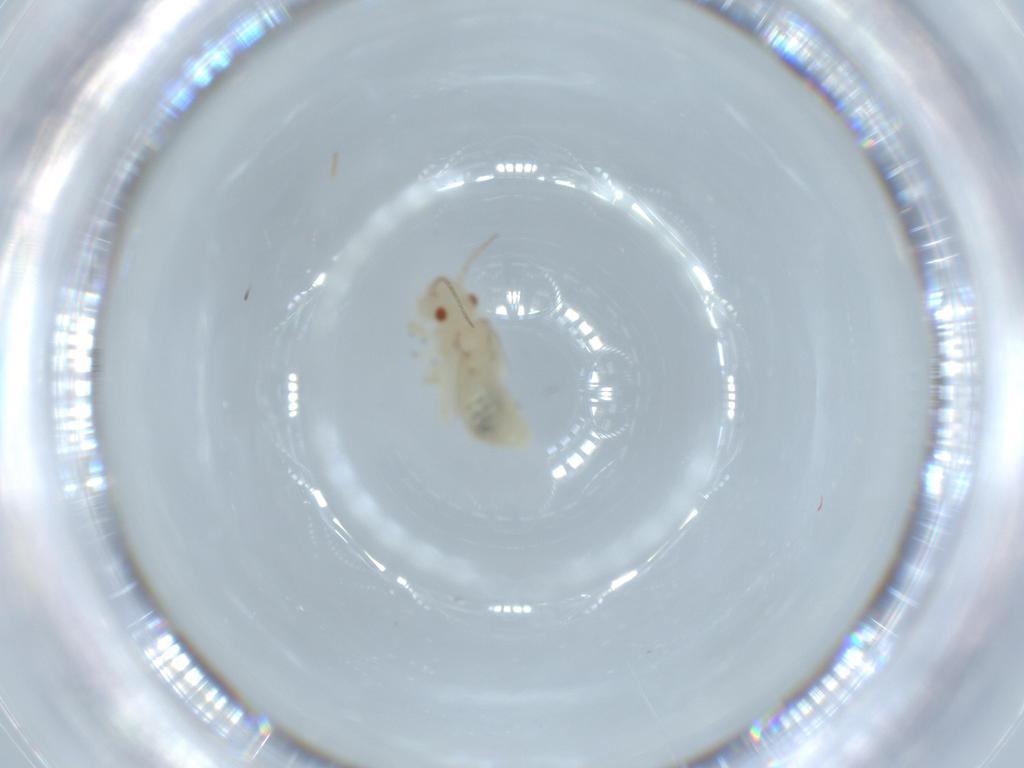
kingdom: Animalia
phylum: Arthropoda
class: Insecta
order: Psocodea
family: Caeciliusidae
